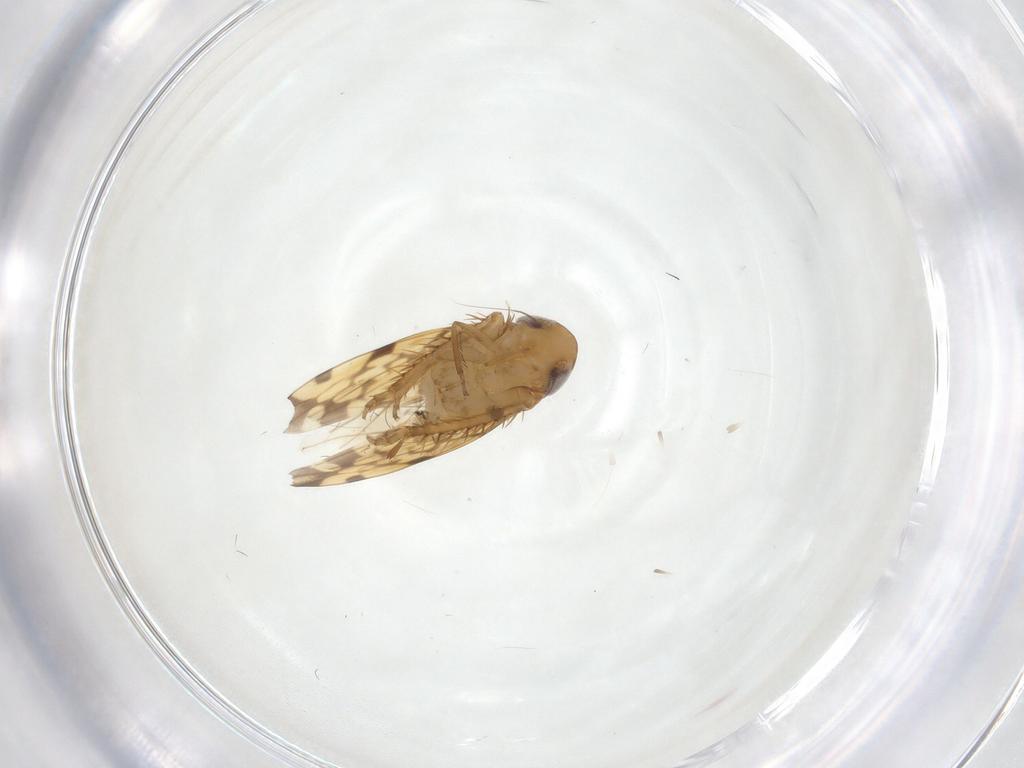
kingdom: Animalia
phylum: Arthropoda
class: Insecta
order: Hemiptera
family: Cicadellidae
